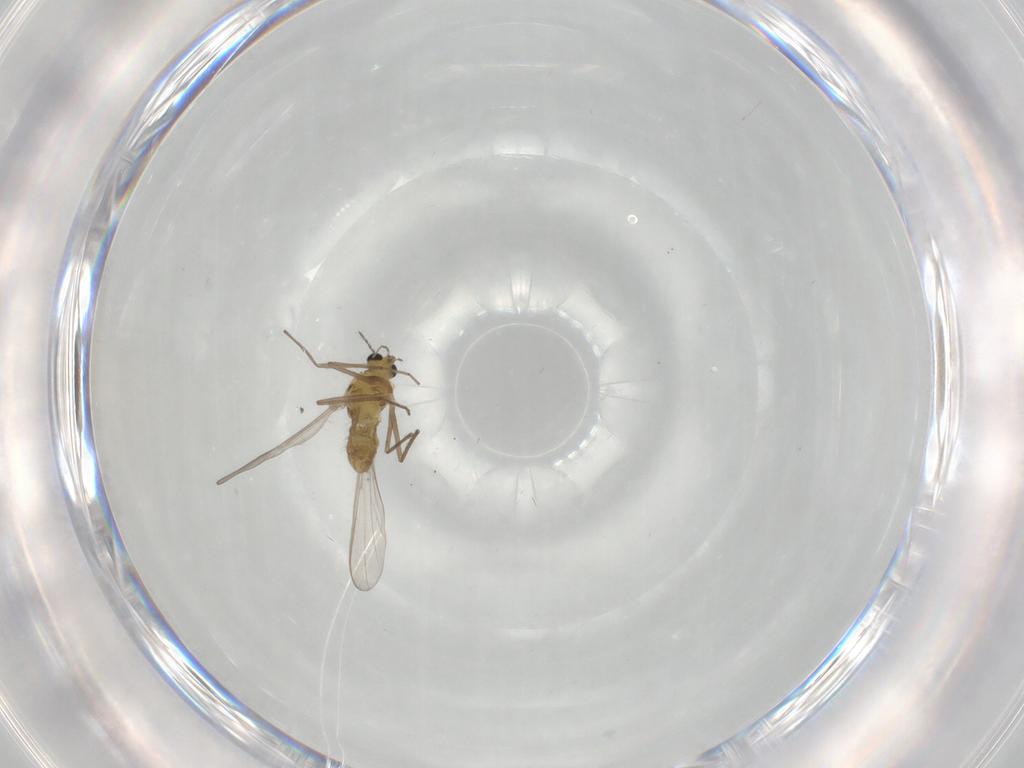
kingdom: Animalia
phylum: Arthropoda
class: Insecta
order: Diptera
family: Chironomidae
